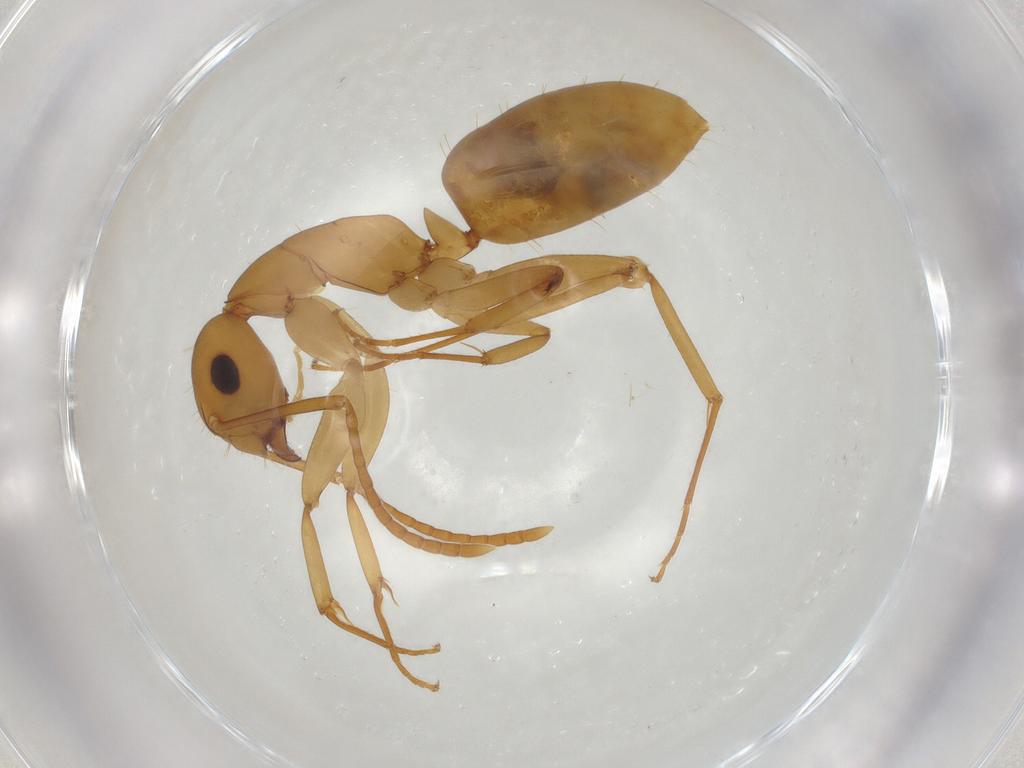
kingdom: Animalia
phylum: Arthropoda
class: Insecta
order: Hymenoptera
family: Formicidae
